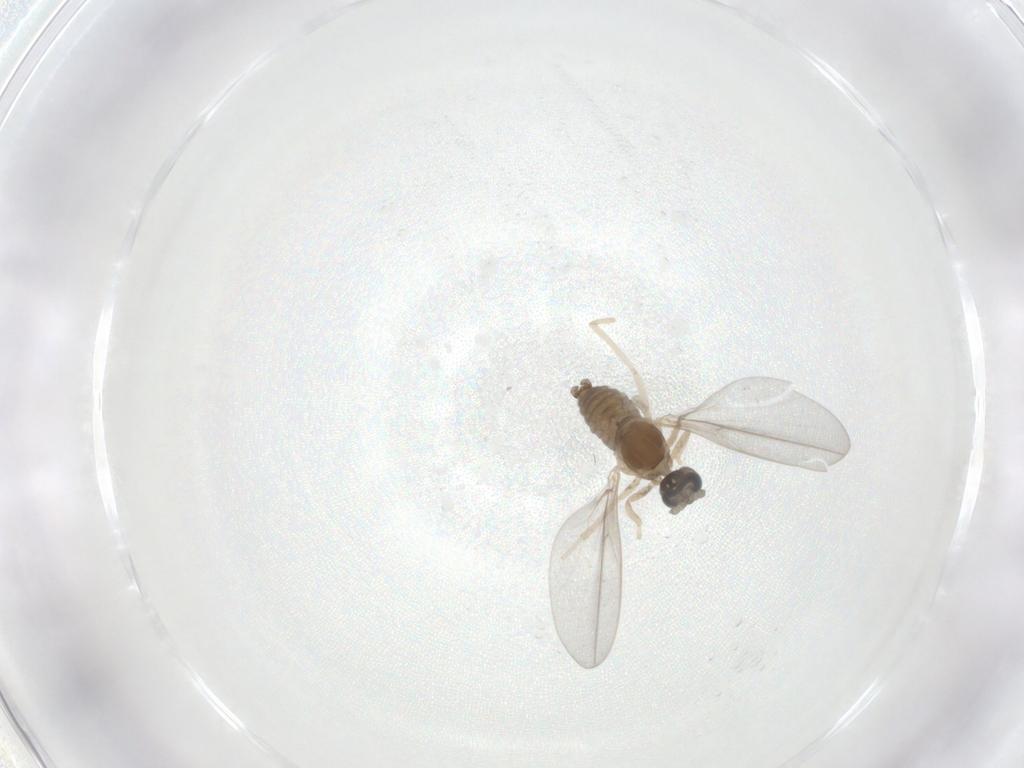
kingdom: Animalia
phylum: Arthropoda
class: Insecta
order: Diptera
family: Cecidomyiidae
